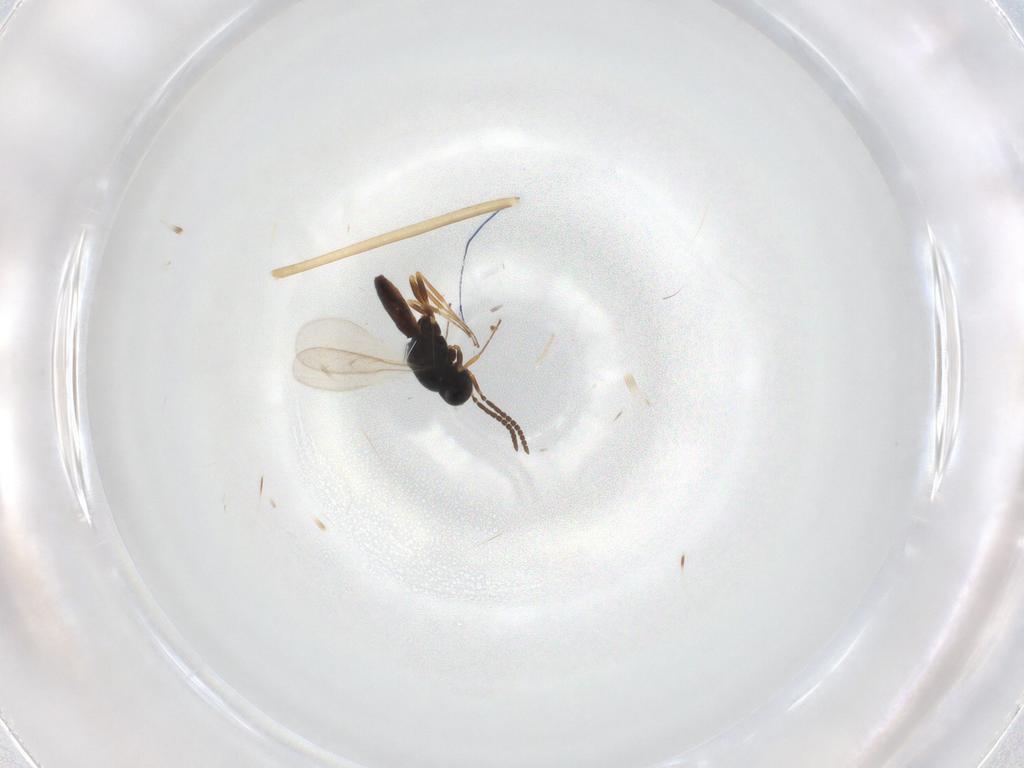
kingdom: Animalia
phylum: Arthropoda
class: Insecta
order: Hymenoptera
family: Scelionidae
